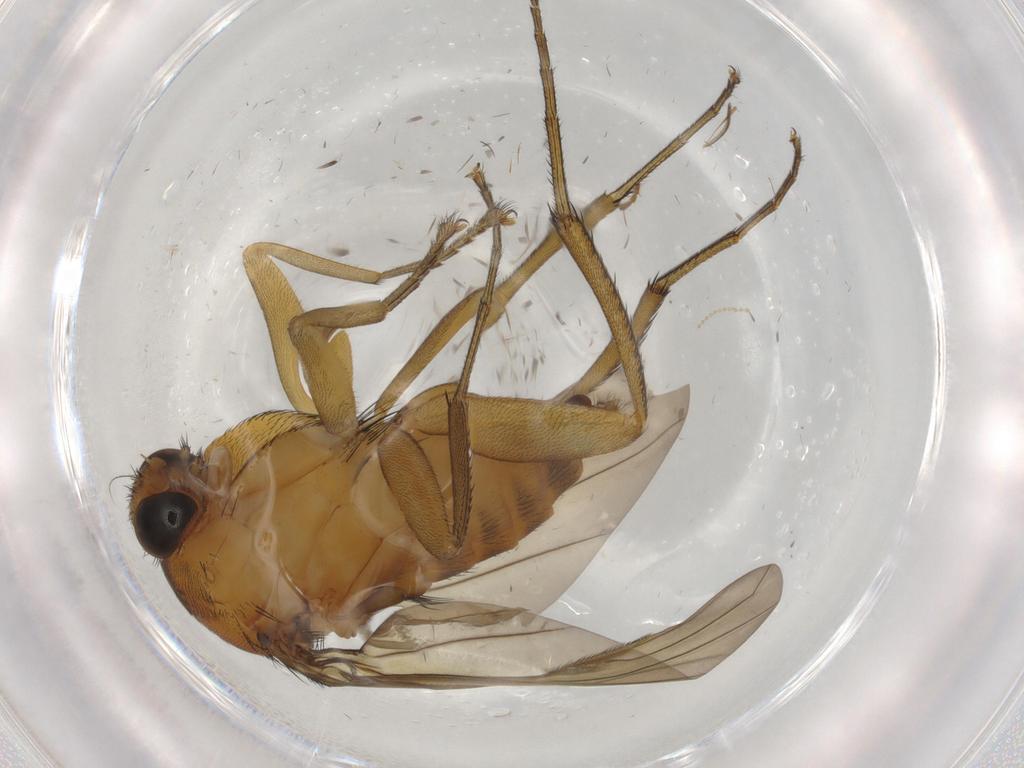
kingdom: Animalia
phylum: Arthropoda
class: Insecta
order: Diptera
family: Phoridae
